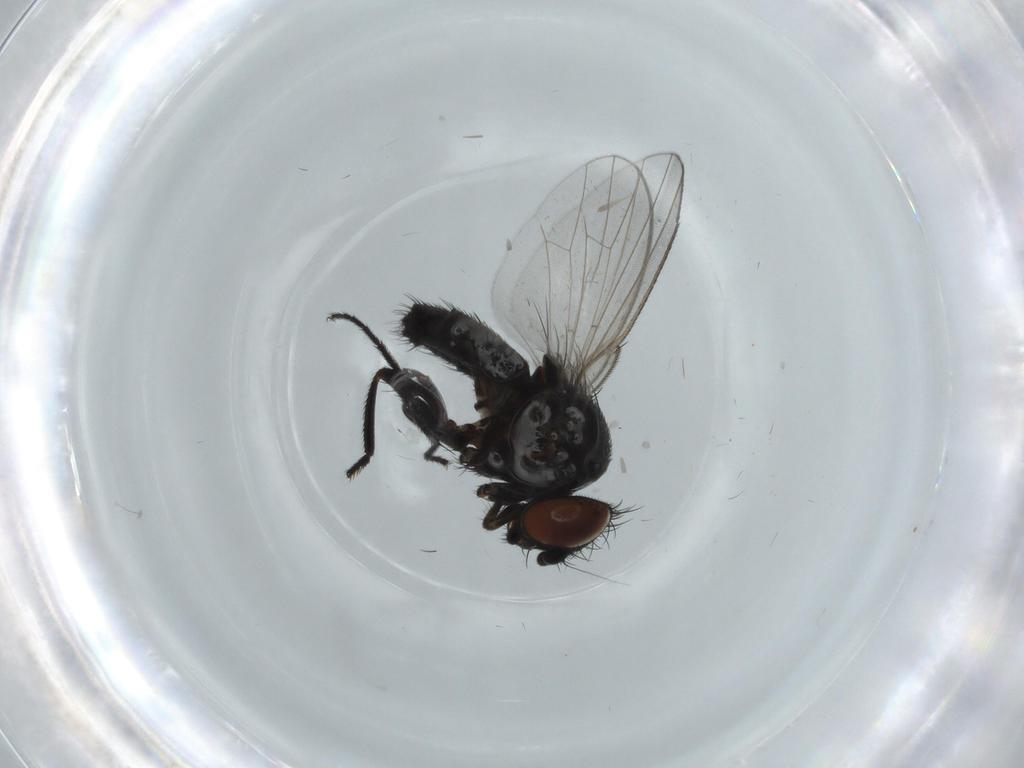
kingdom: Animalia
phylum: Arthropoda
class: Insecta
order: Diptera
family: Milichiidae
